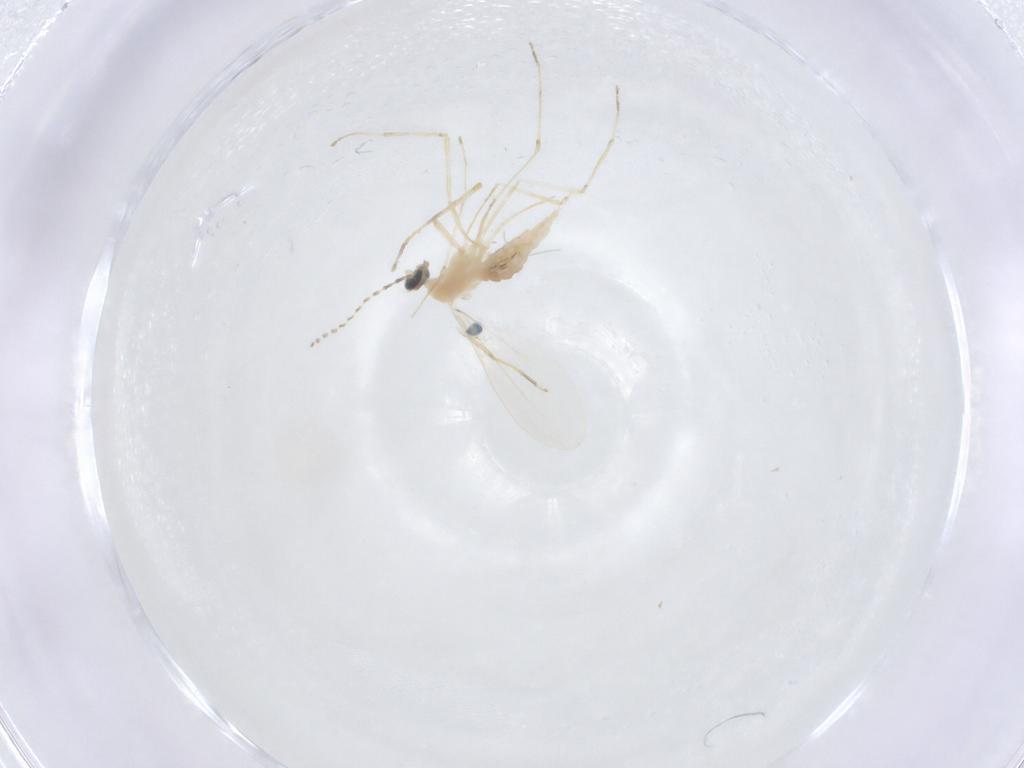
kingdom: Animalia
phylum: Arthropoda
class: Insecta
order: Diptera
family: Cecidomyiidae
